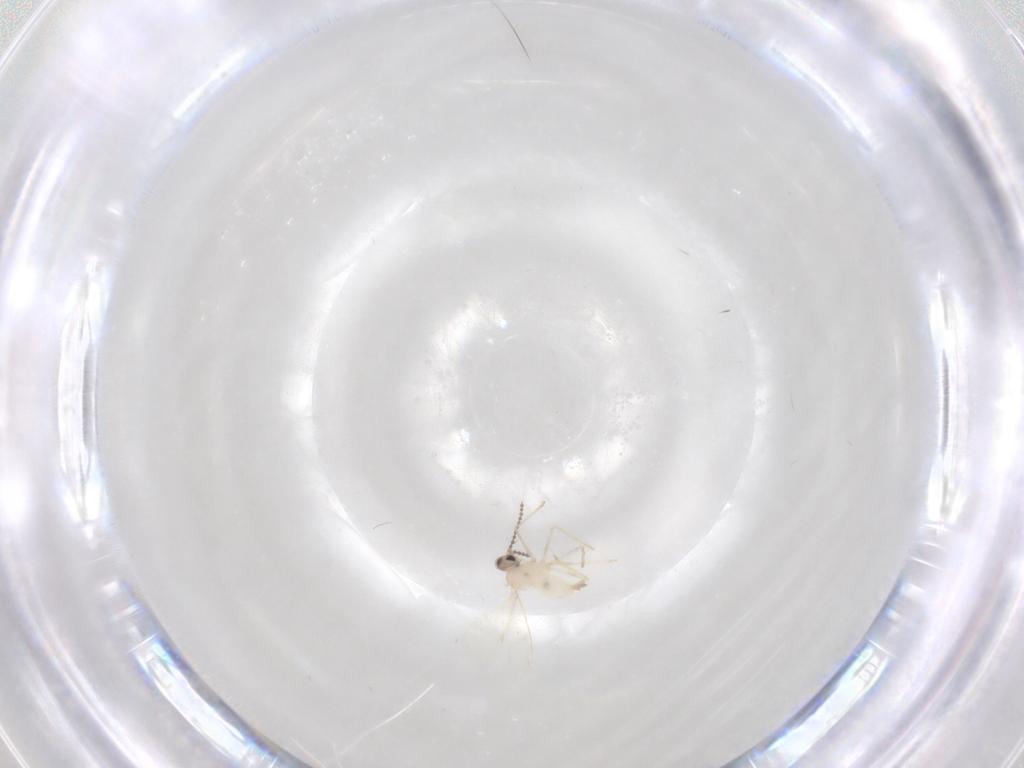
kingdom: Animalia
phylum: Arthropoda
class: Insecta
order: Diptera
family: Cecidomyiidae
